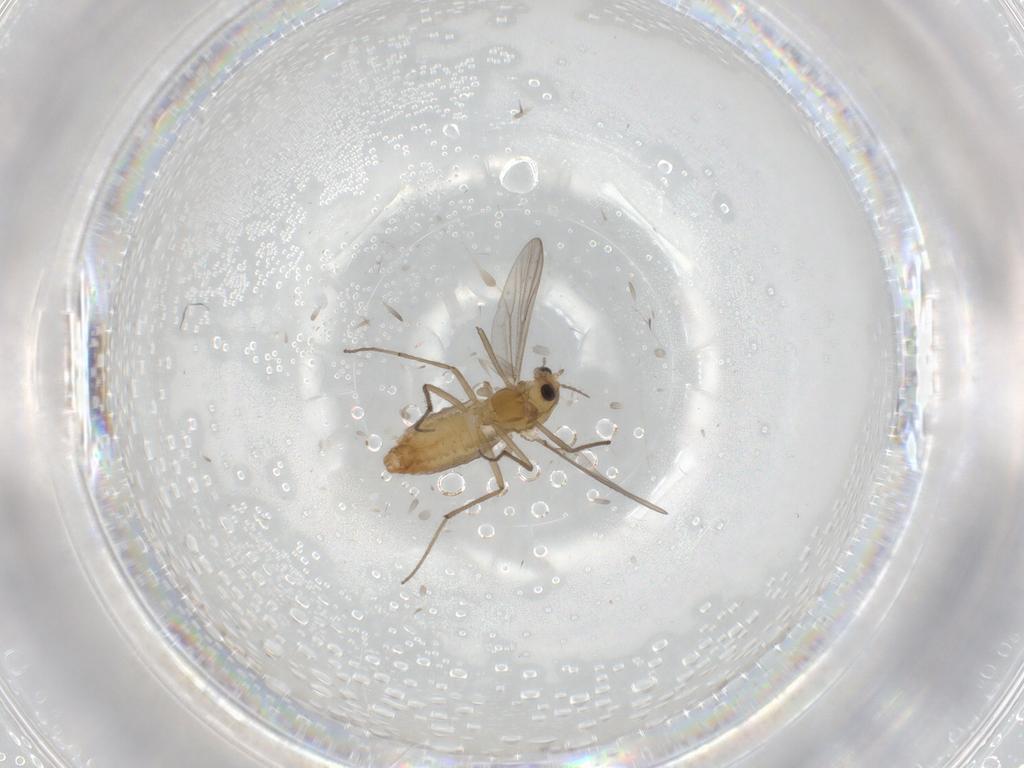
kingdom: Animalia
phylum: Arthropoda
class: Insecta
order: Diptera
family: Chironomidae
